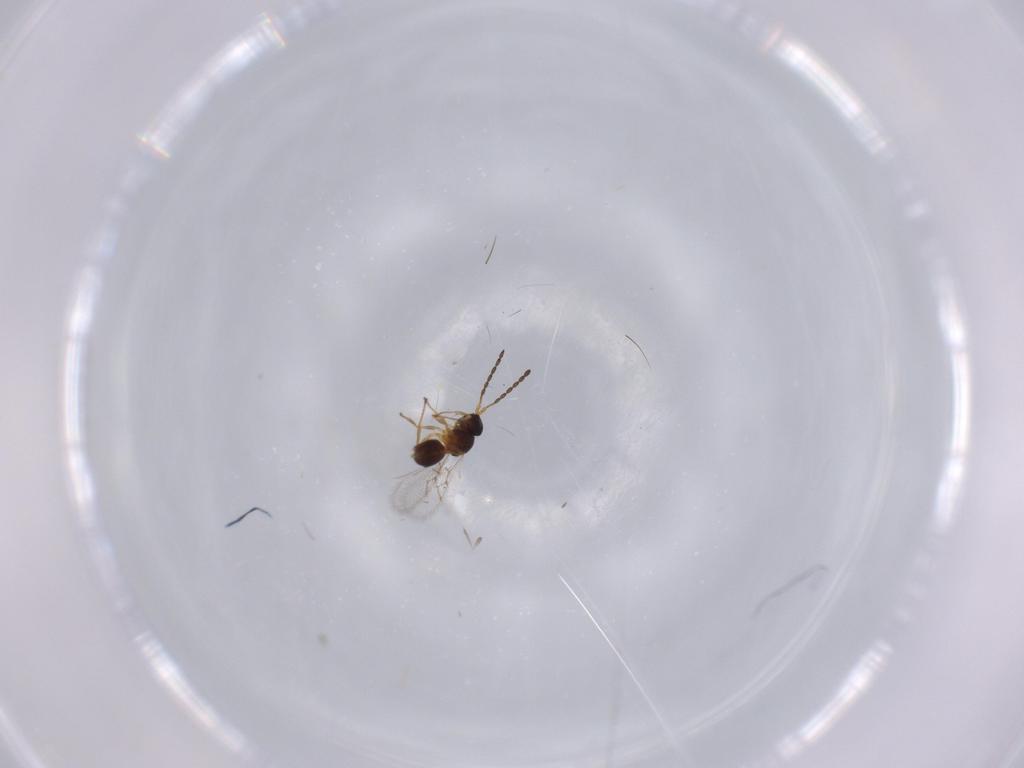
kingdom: Animalia
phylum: Arthropoda
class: Insecta
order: Hymenoptera
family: Figitidae
